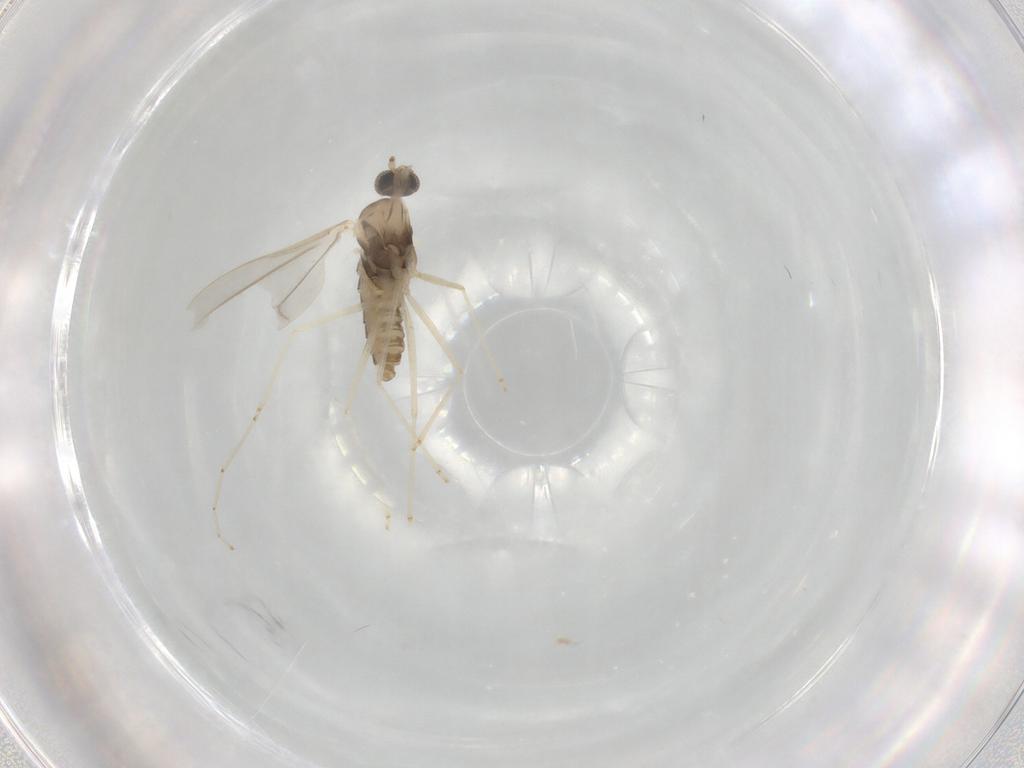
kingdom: Animalia
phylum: Arthropoda
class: Insecta
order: Diptera
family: Cecidomyiidae
